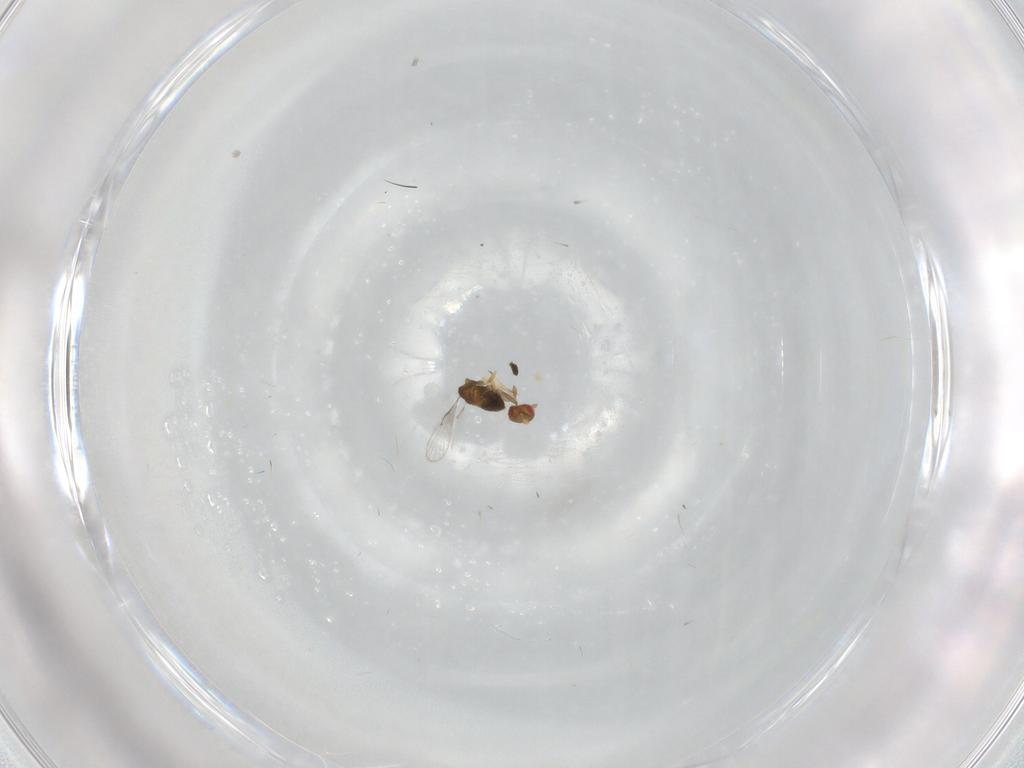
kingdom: Animalia
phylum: Arthropoda
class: Insecta
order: Hymenoptera
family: Trichogrammatidae
